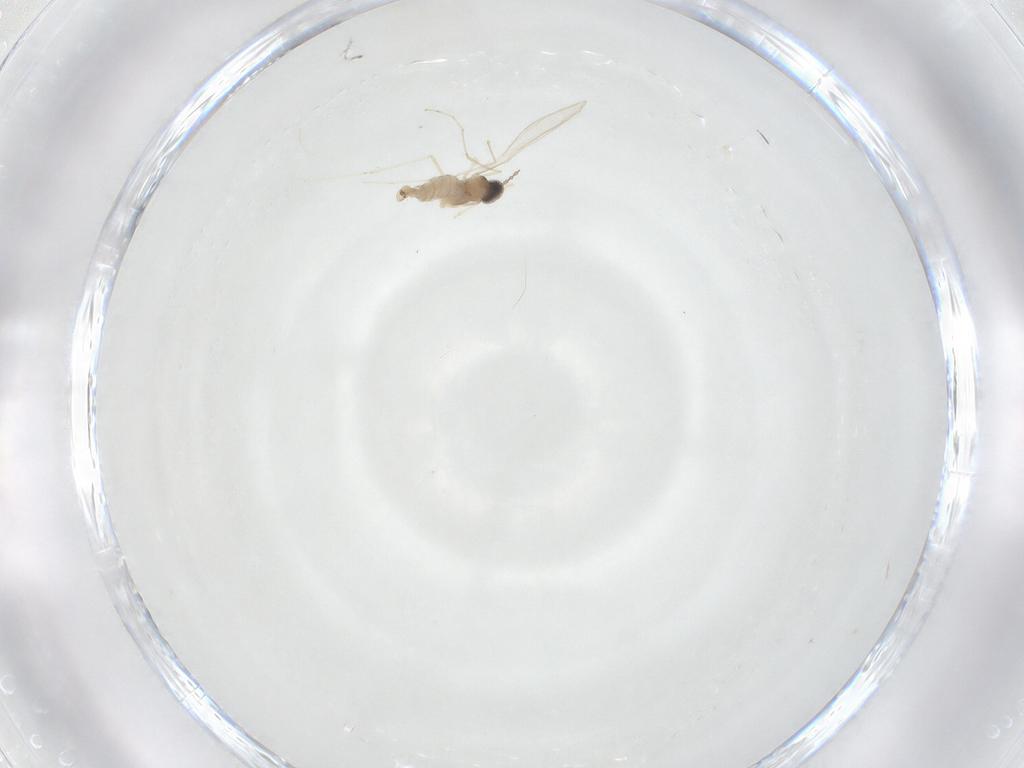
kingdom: Animalia
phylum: Arthropoda
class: Insecta
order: Diptera
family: Cecidomyiidae
